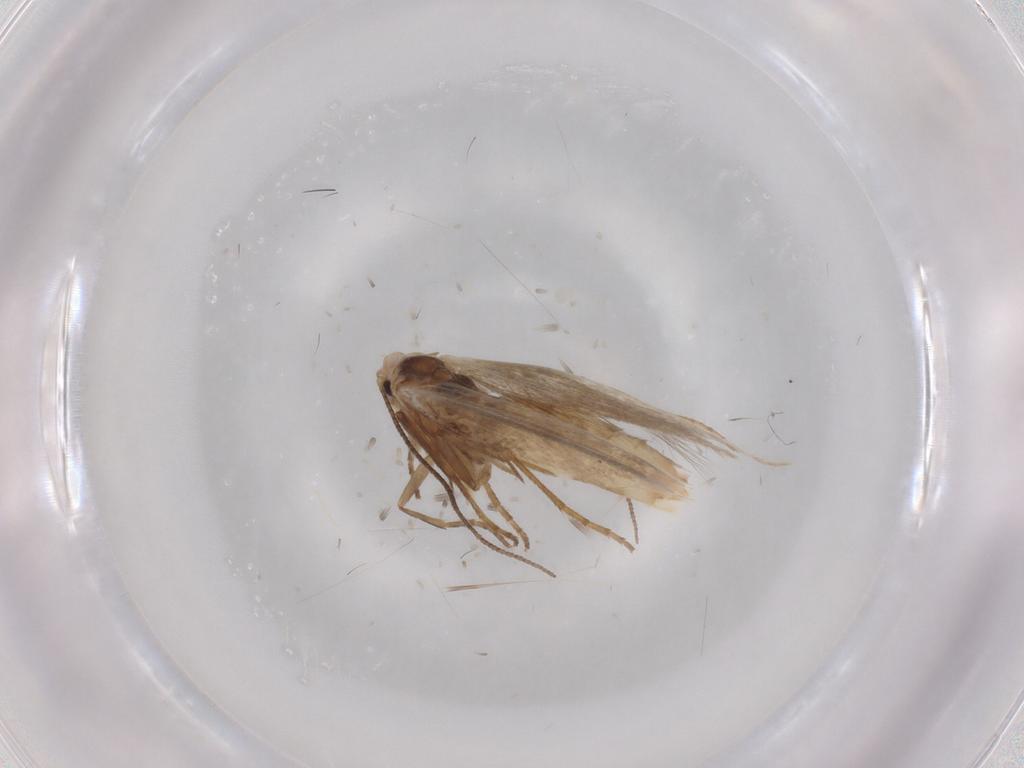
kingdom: Animalia
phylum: Arthropoda
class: Insecta
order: Lepidoptera
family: Bucculatricidae
